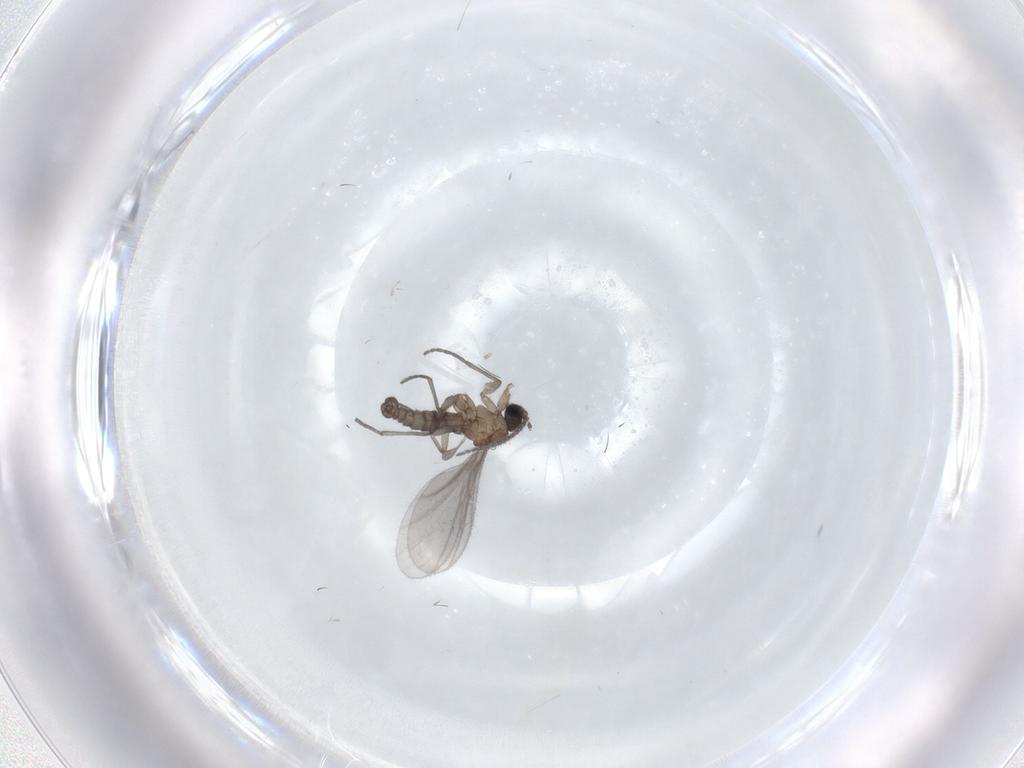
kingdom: Animalia
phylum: Arthropoda
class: Insecta
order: Diptera
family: Sciaridae
